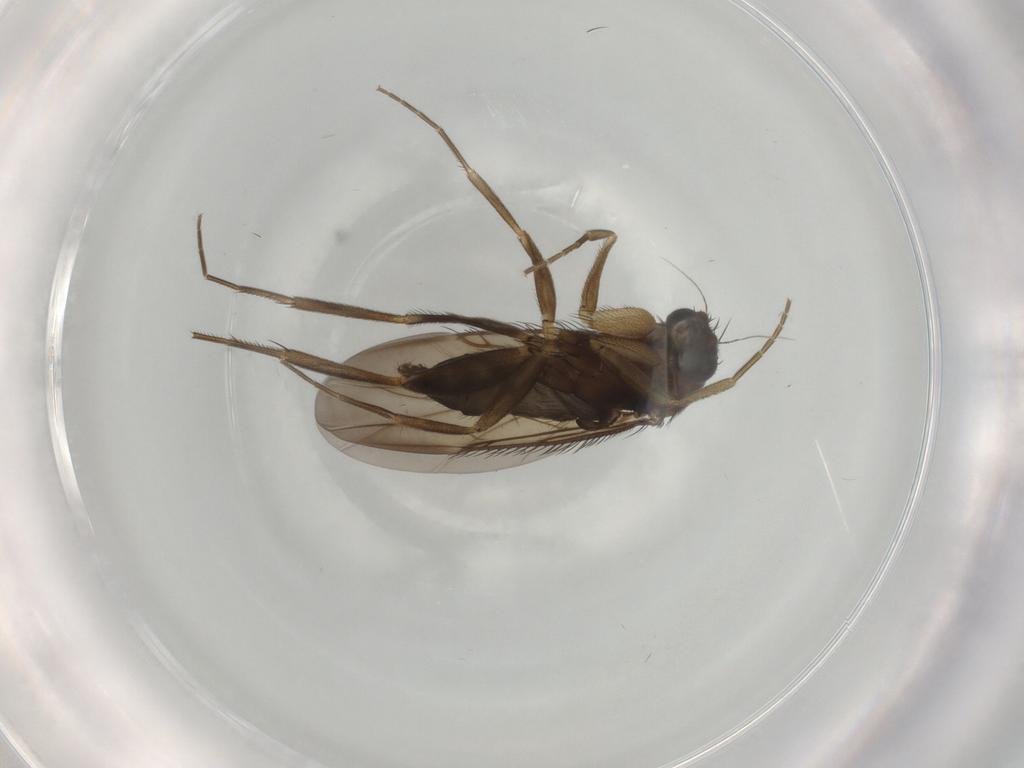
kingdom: Animalia
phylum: Arthropoda
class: Insecta
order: Diptera
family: Phoridae
